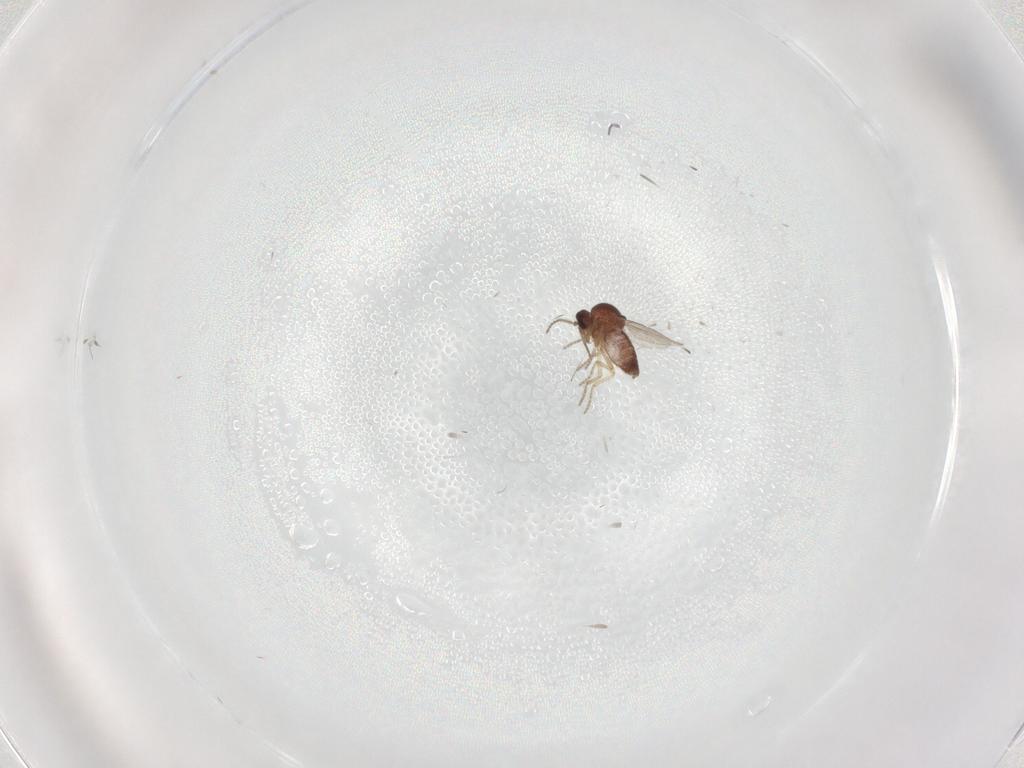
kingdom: Animalia
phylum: Arthropoda
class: Insecta
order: Diptera
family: Ceratopogonidae
